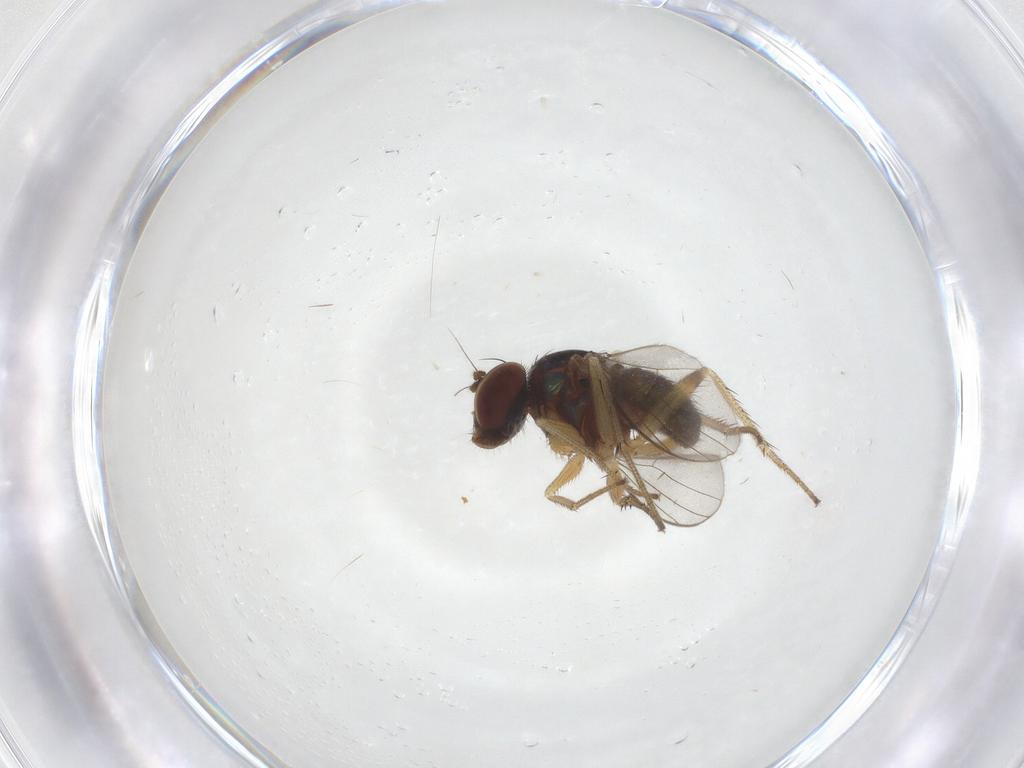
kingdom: Animalia
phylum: Arthropoda
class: Insecta
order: Diptera
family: Dolichopodidae
